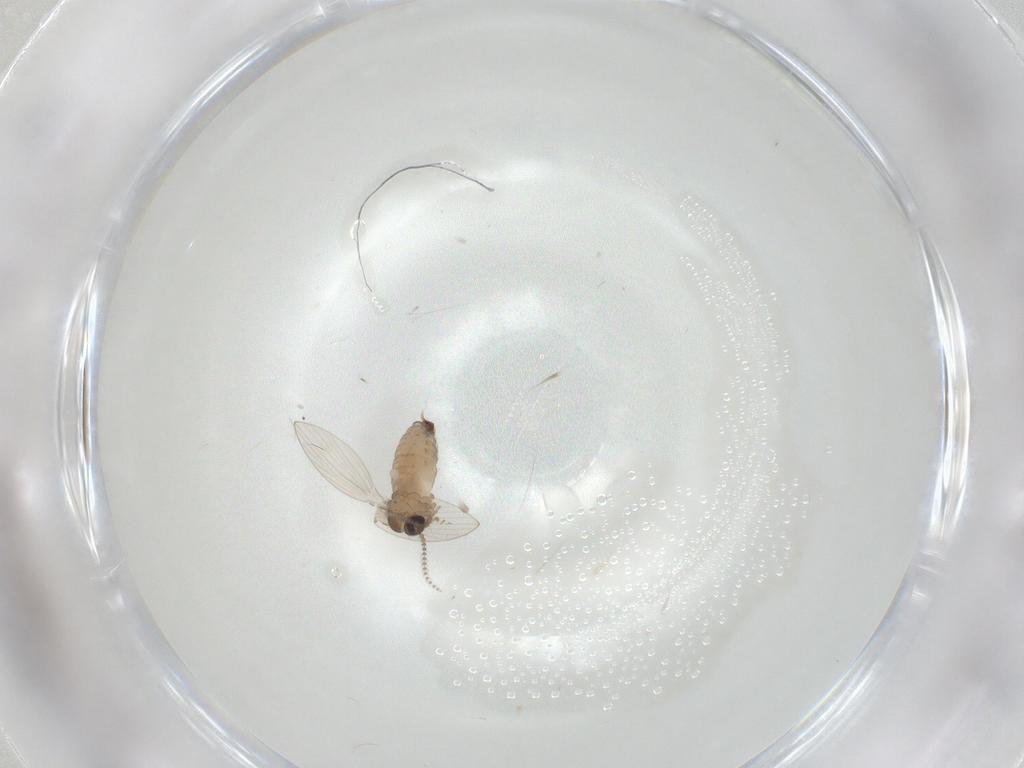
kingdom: Animalia
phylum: Arthropoda
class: Insecta
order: Diptera
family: Psychodidae
